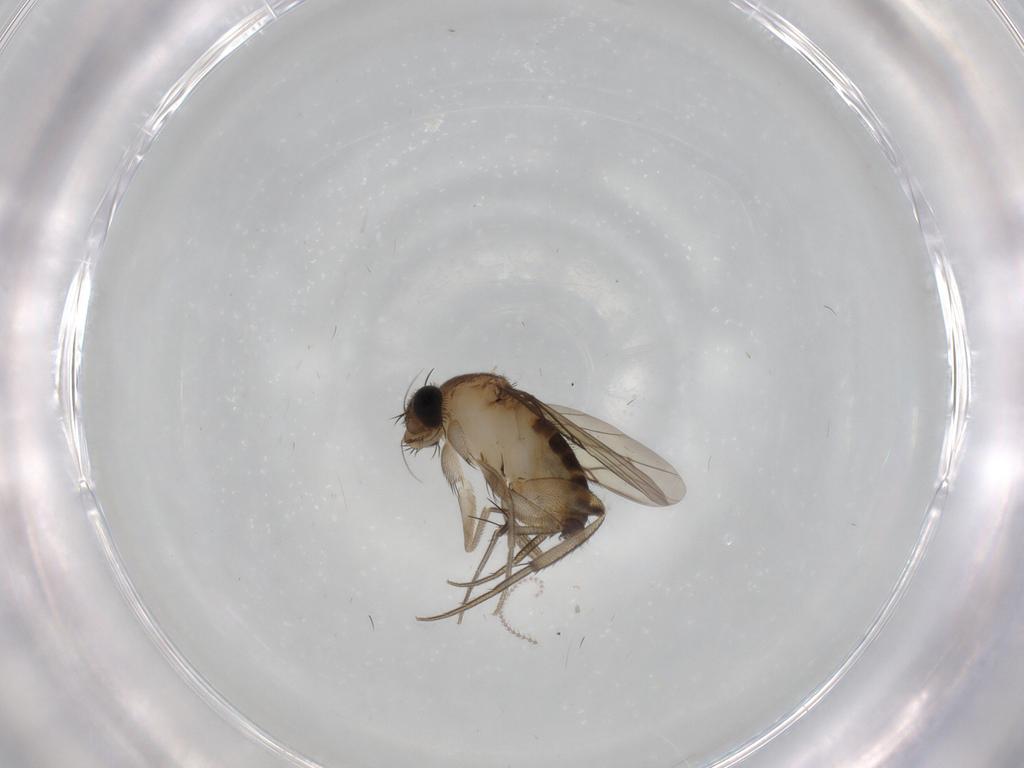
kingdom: Animalia
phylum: Arthropoda
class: Insecta
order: Diptera
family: Phoridae
